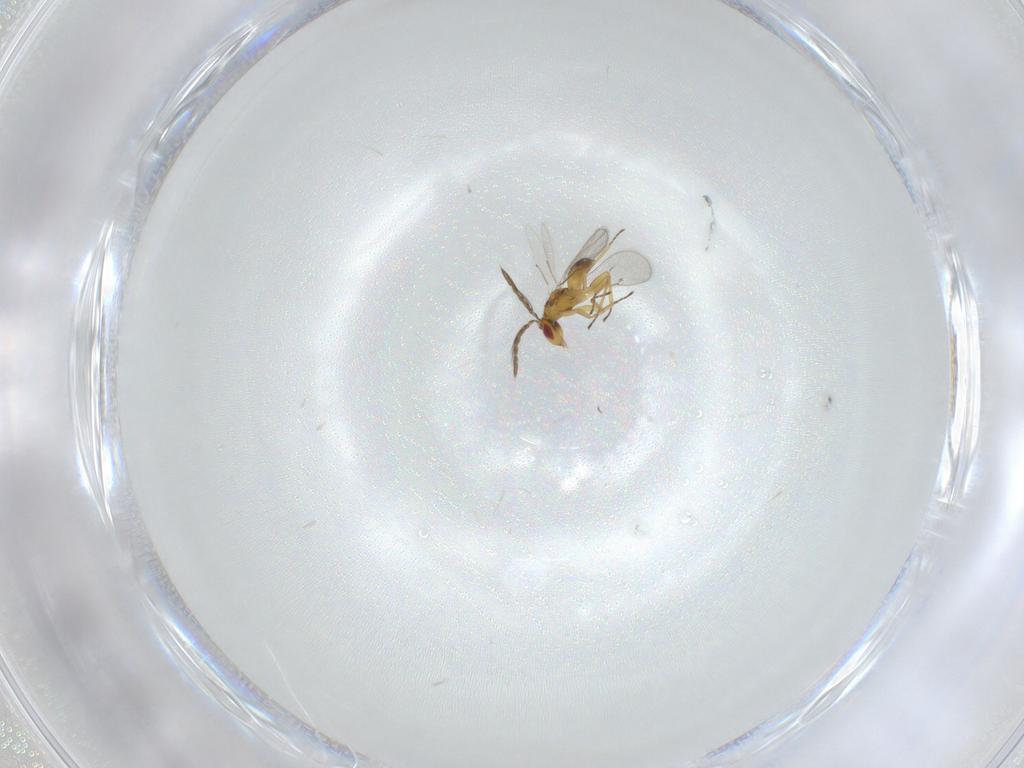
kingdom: Animalia
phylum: Arthropoda
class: Insecta
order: Hymenoptera
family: Eulophidae
